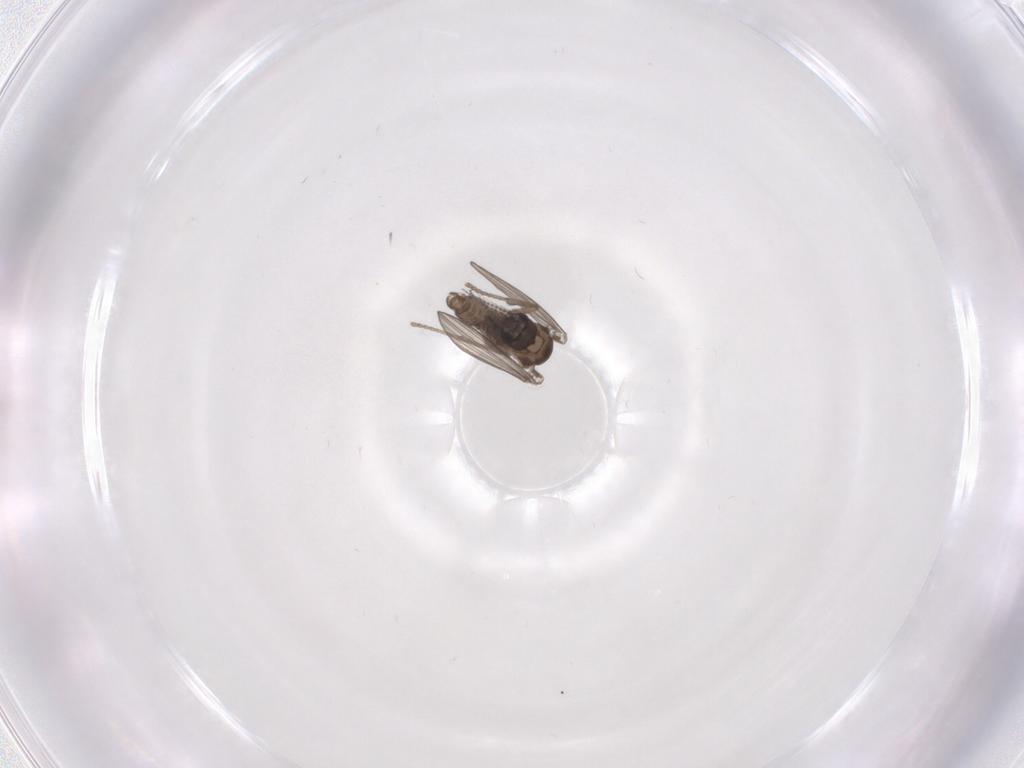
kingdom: Animalia
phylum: Arthropoda
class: Insecta
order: Diptera
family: Psychodidae
